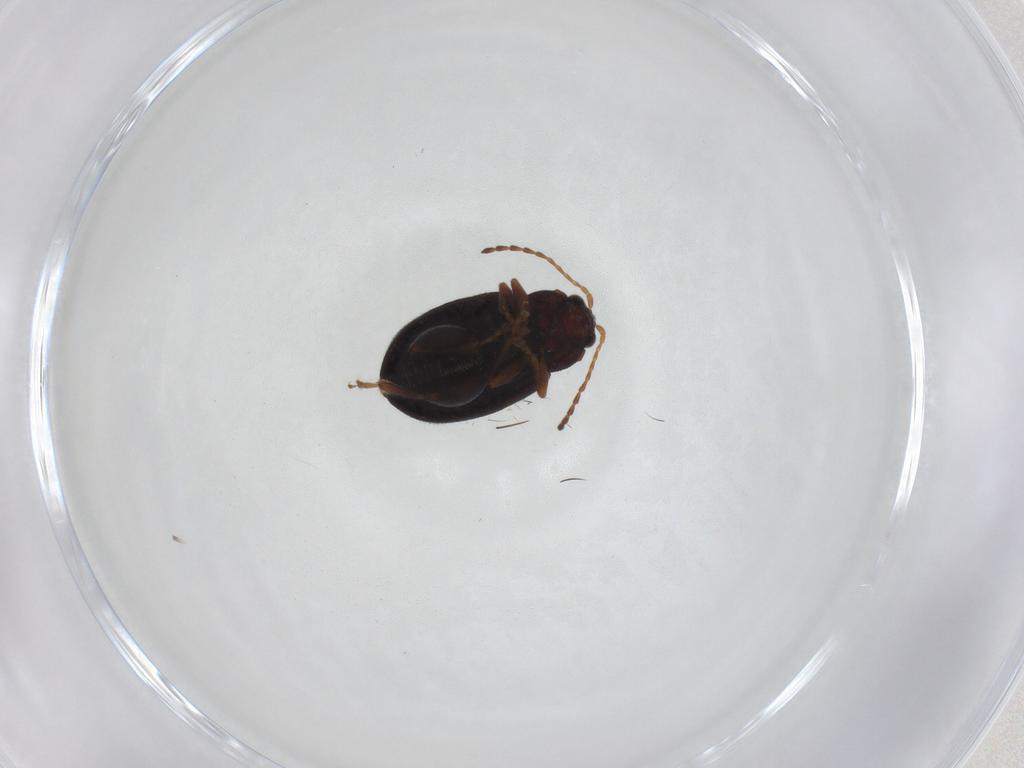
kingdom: Animalia
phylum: Arthropoda
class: Insecta
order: Coleoptera
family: Chrysomelidae
